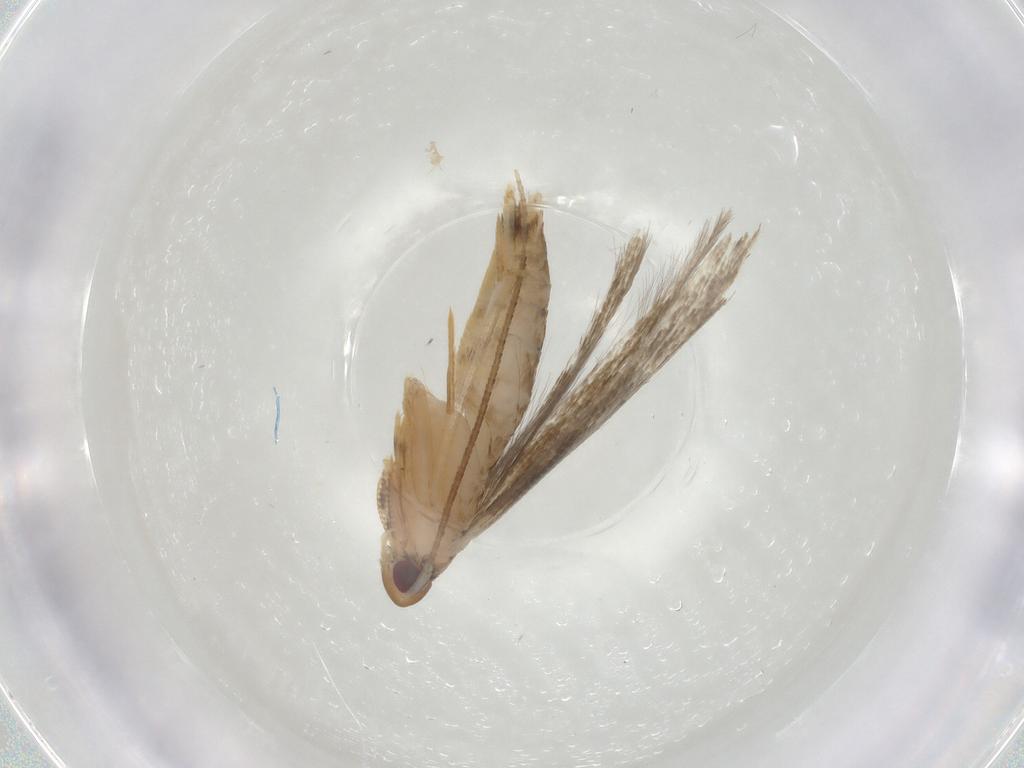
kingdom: Animalia
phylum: Arthropoda
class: Insecta
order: Lepidoptera
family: Momphidae
